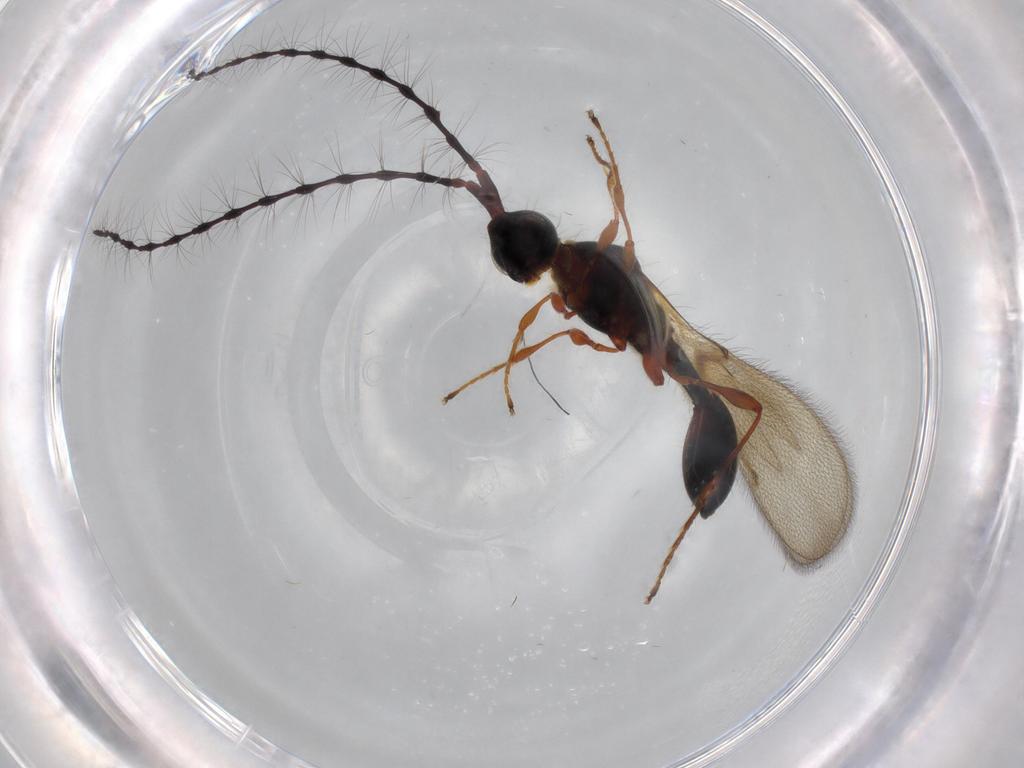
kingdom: Animalia
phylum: Arthropoda
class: Insecta
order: Hymenoptera
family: Diapriidae
